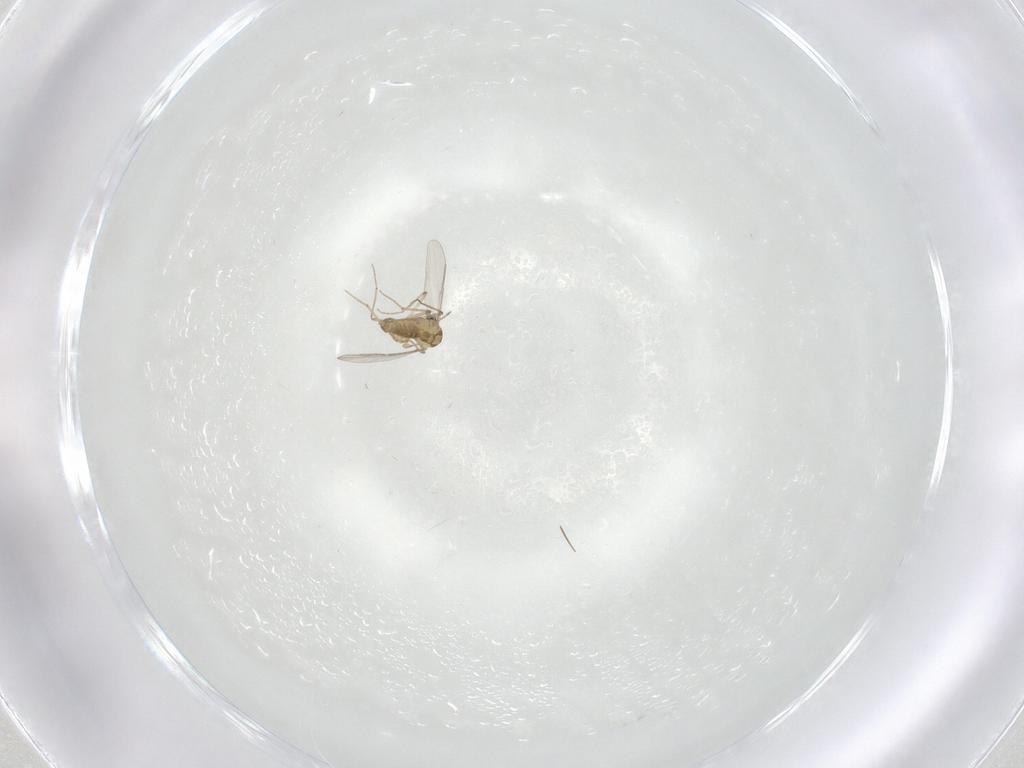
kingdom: Animalia
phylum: Arthropoda
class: Insecta
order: Diptera
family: Chironomidae
